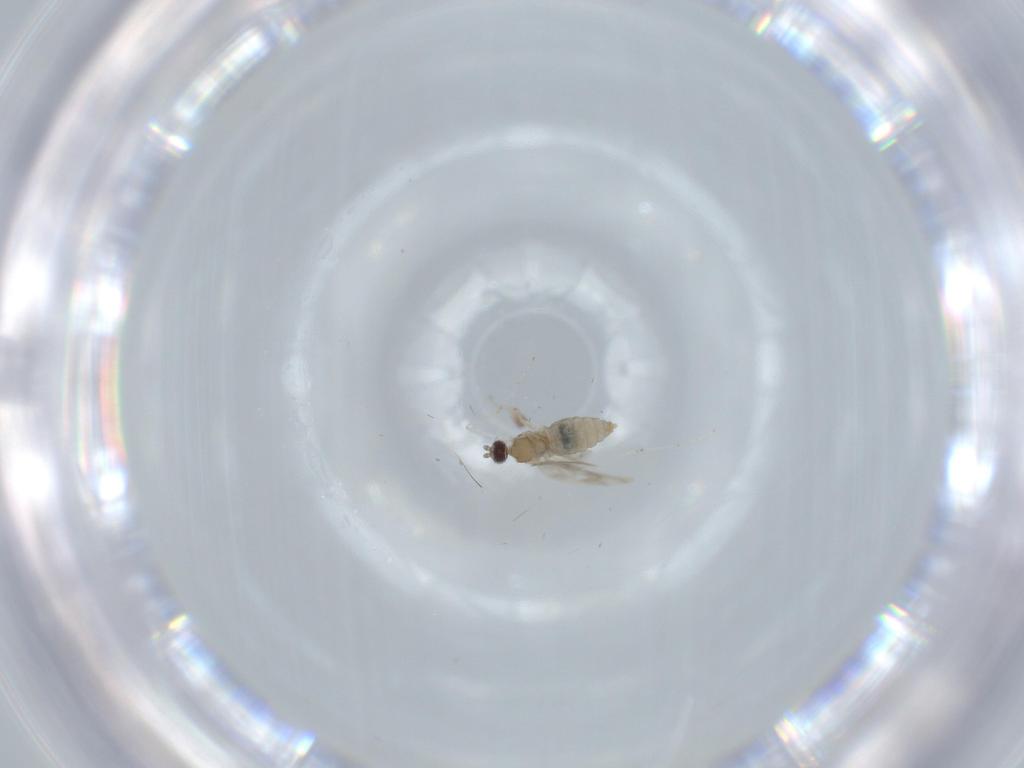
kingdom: Animalia
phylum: Arthropoda
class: Insecta
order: Diptera
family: Cecidomyiidae
